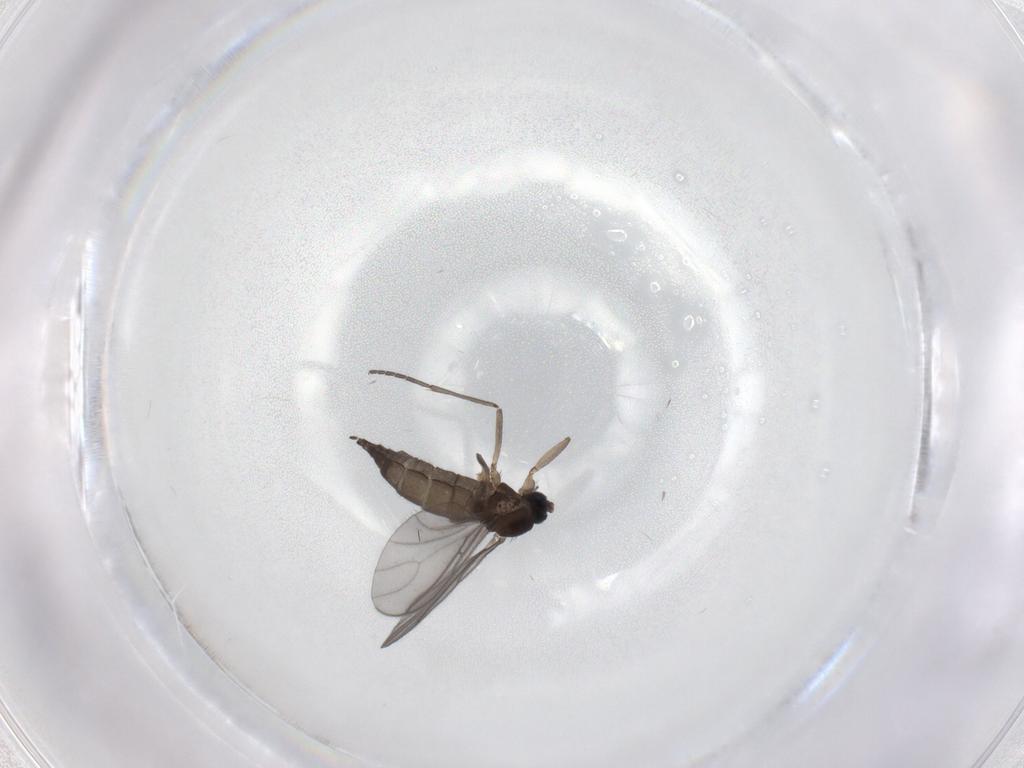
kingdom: Animalia
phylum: Arthropoda
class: Insecta
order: Diptera
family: Sciaridae
